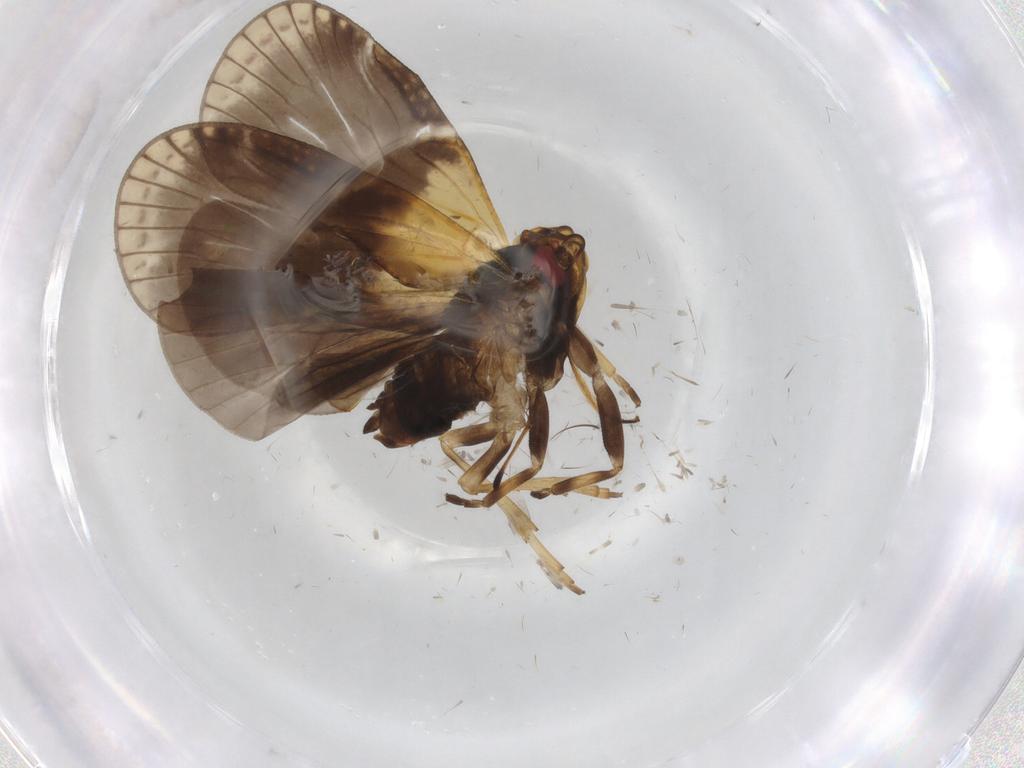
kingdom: Animalia
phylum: Arthropoda
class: Insecta
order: Hemiptera
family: Cixiidae
